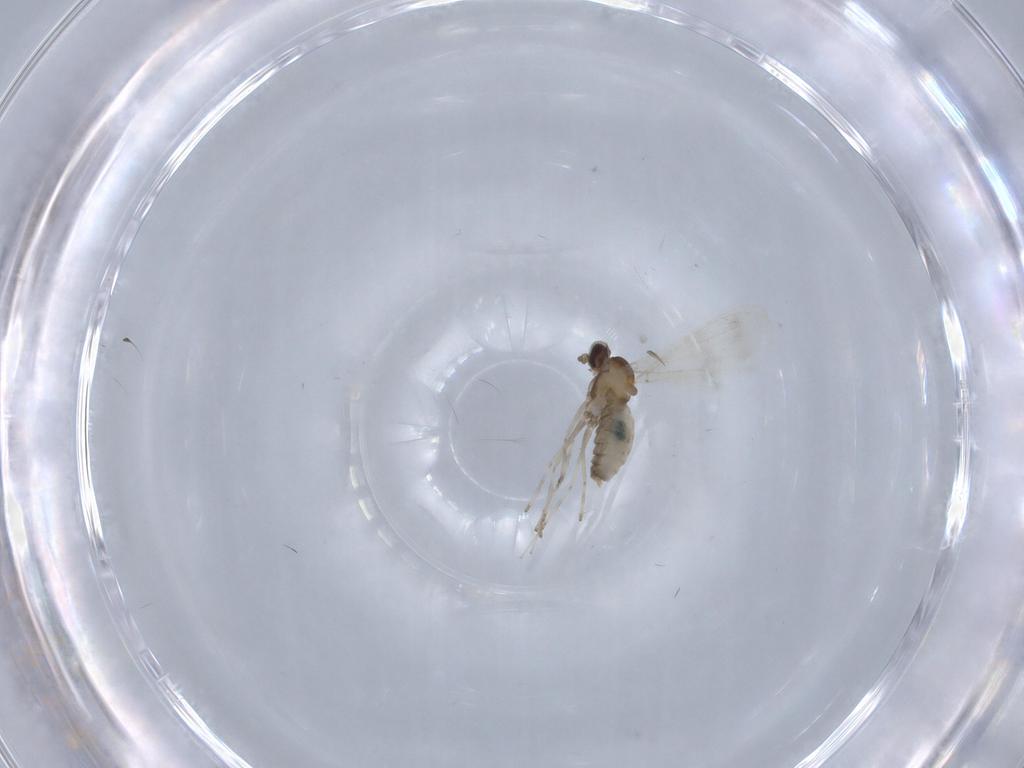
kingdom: Animalia
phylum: Arthropoda
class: Insecta
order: Diptera
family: Cecidomyiidae
